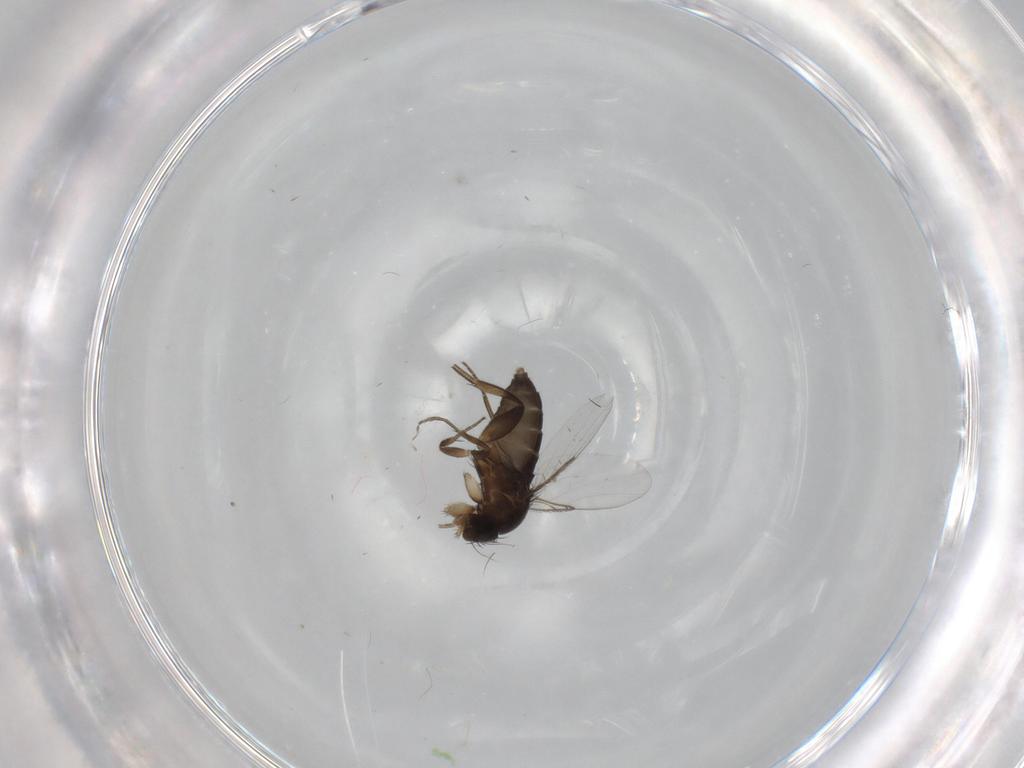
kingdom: Animalia
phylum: Arthropoda
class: Insecta
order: Diptera
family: Phoridae
